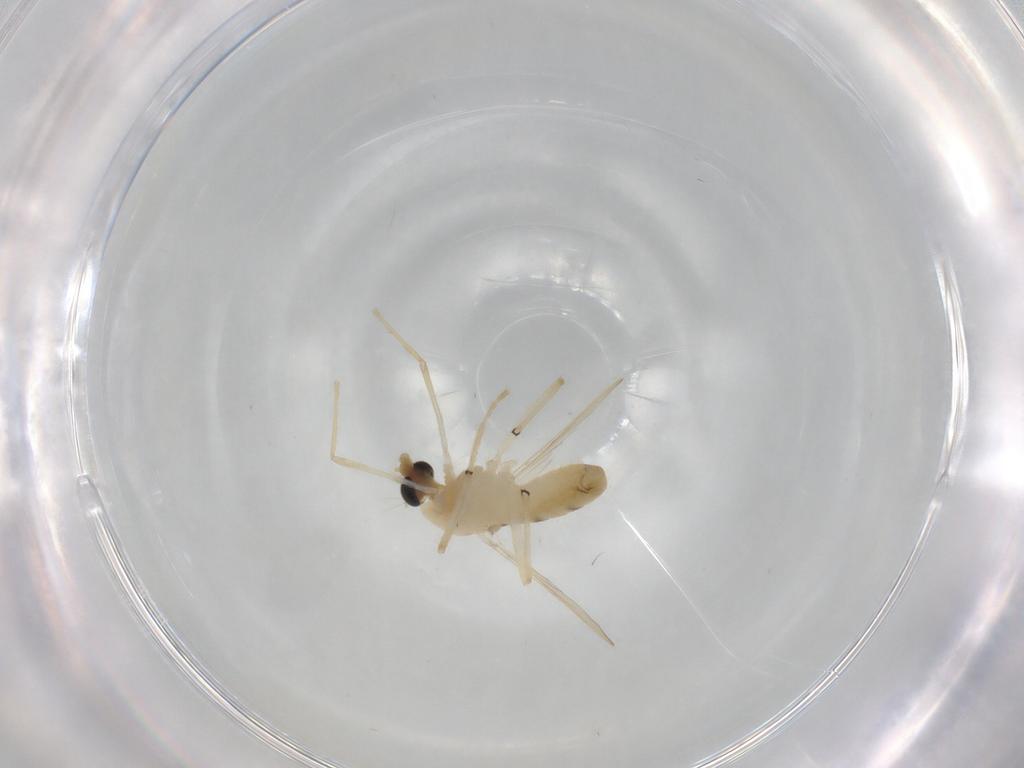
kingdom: Animalia
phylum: Arthropoda
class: Insecta
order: Diptera
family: Chironomidae
